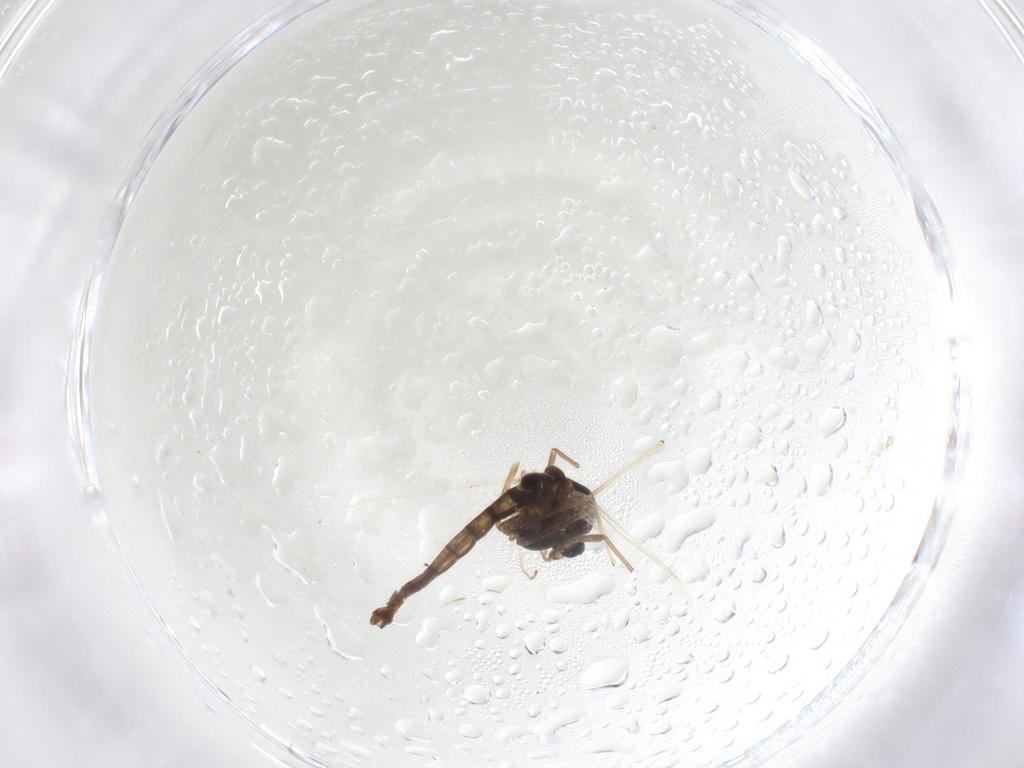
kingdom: Animalia
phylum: Arthropoda
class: Insecta
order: Diptera
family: Chironomidae
